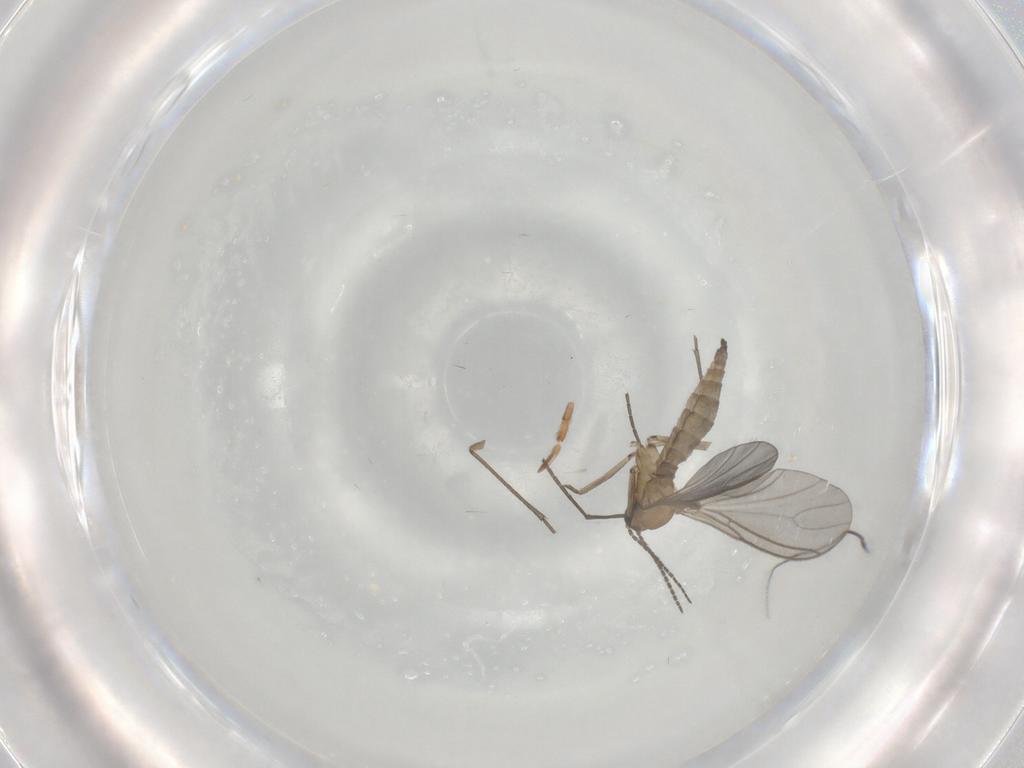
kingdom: Animalia
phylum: Arthropoda
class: Insecta
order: Diptera
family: Sciaridae
